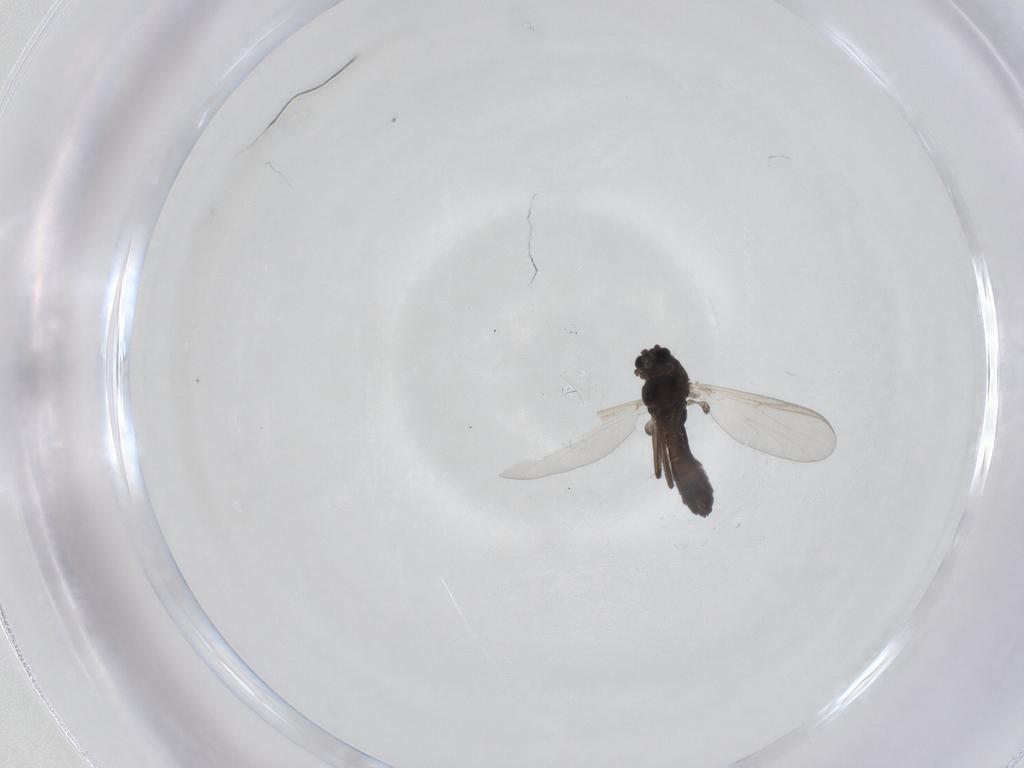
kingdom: Animalia
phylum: Arthropoda
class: Insecta
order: Diptera
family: Chironomidae
